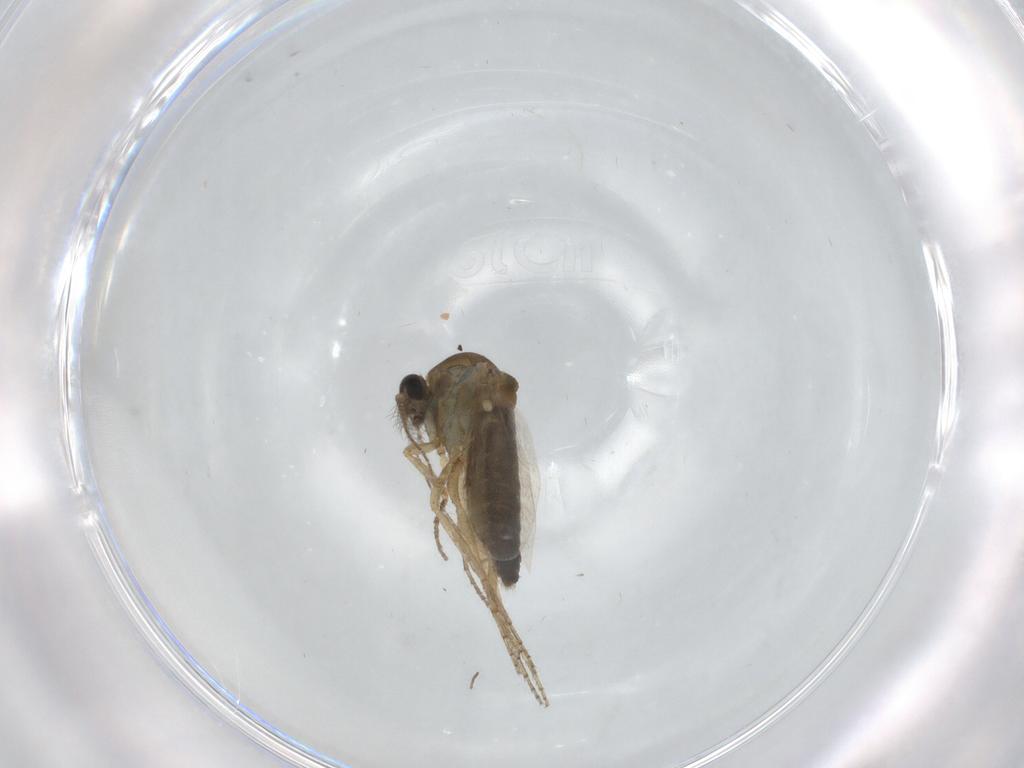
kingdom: Animalia
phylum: Arthropoda
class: Insecta
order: Diptera
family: Ceratopogonidae
